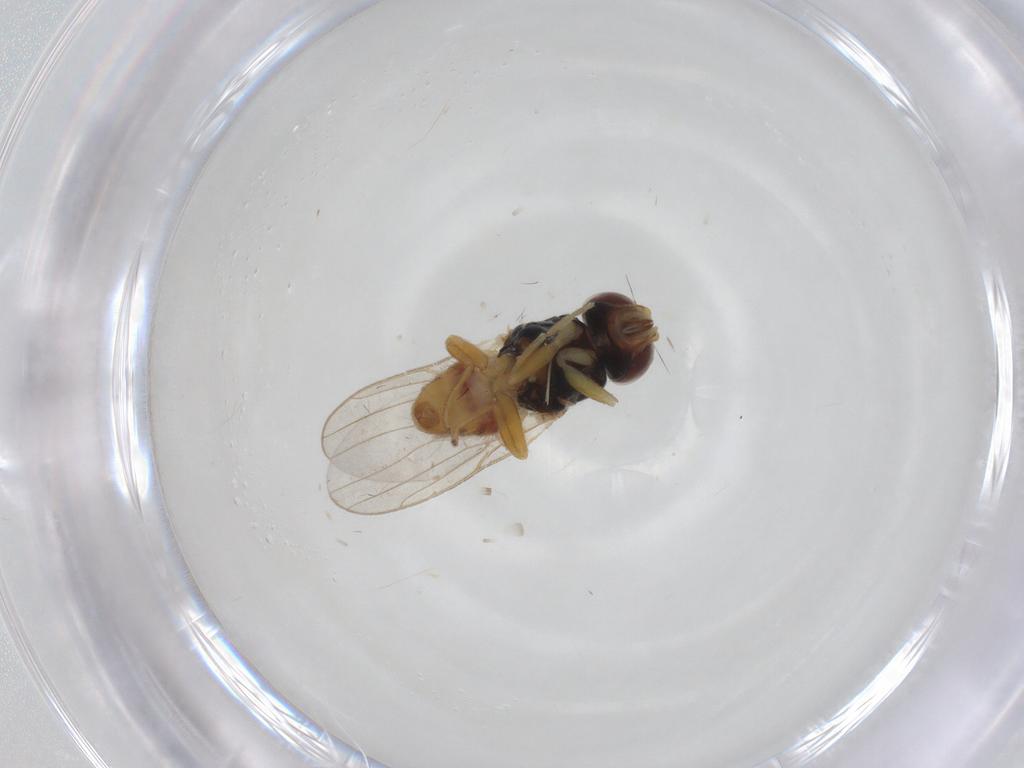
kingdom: Animalia
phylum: Arthropoda
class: Insecta
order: Diptera
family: Chloropidae
